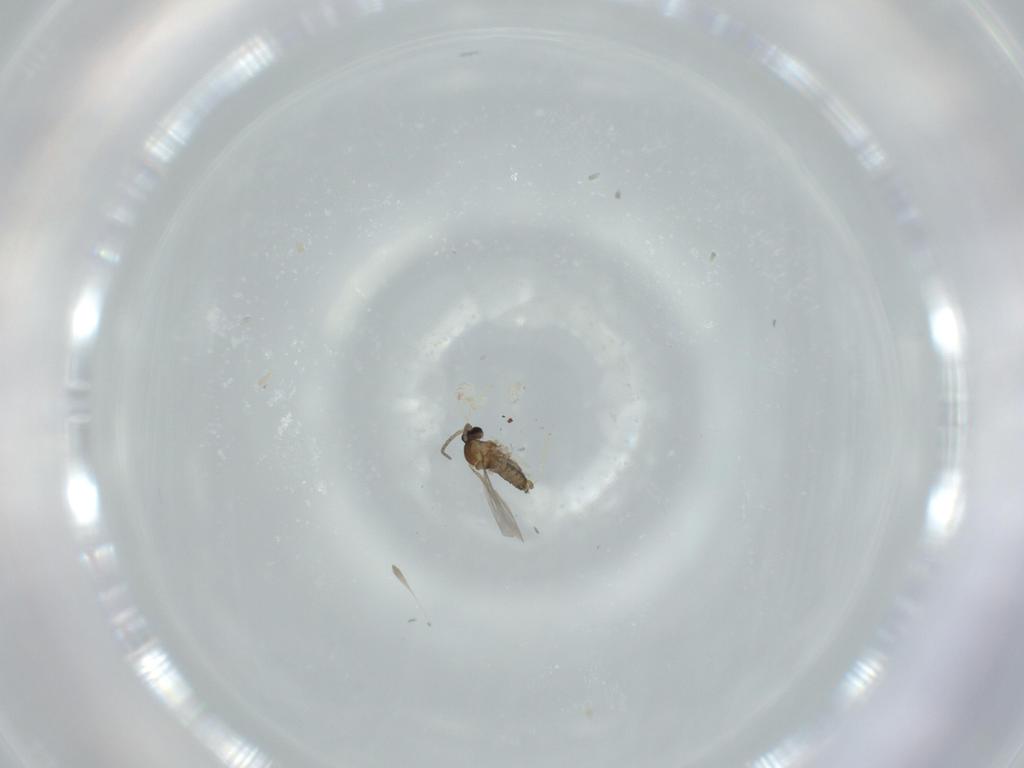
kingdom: Animalia
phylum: Arthropoda
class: Insecta
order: Diptera
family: Cecidomyiidae
